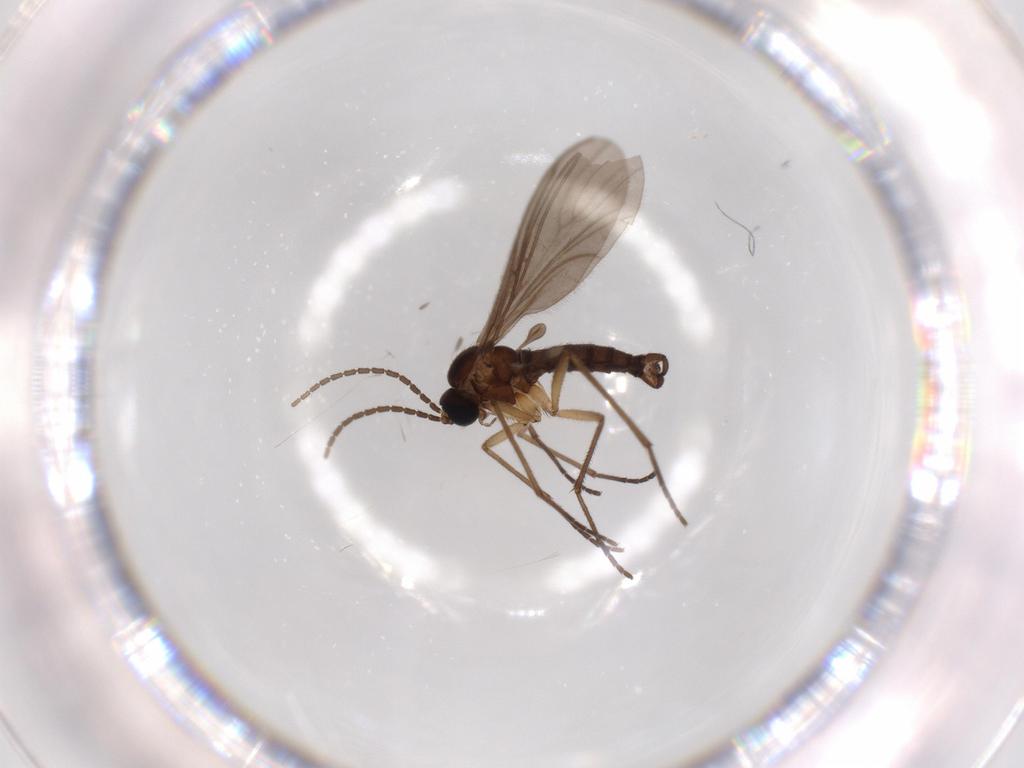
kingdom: Animalia
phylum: Arthropoda
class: Insecta
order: Diptera
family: Sciaridae
